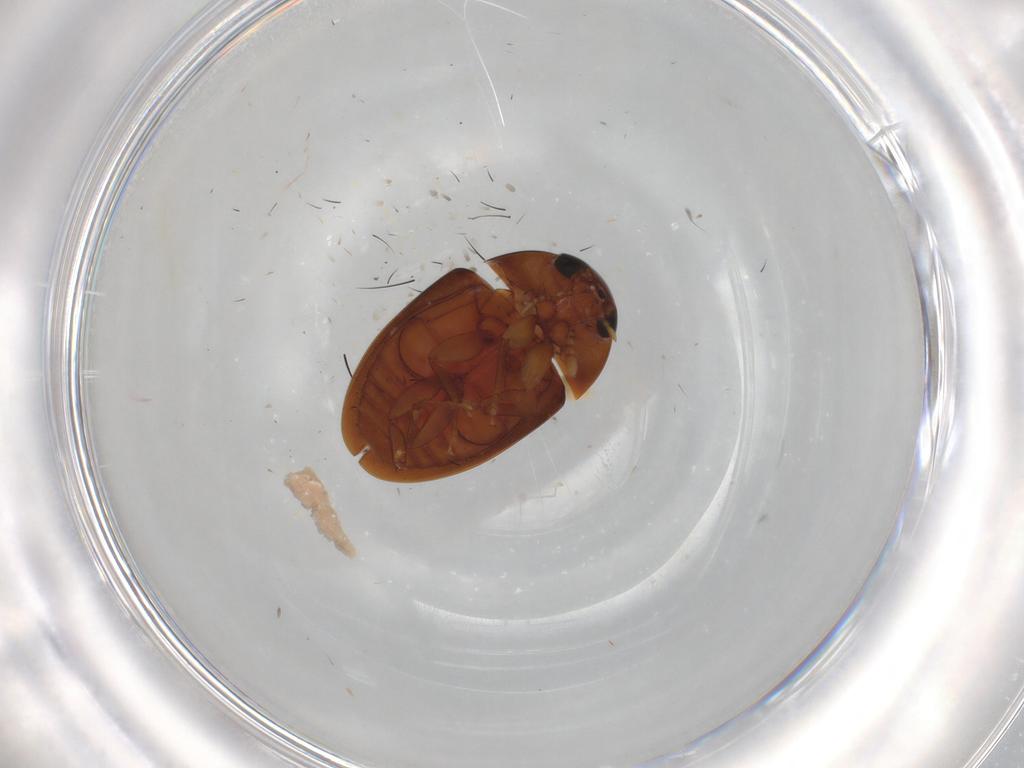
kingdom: Animalia
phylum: Arthropoda
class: Insecta
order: Coleoptera
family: Phalacridae
